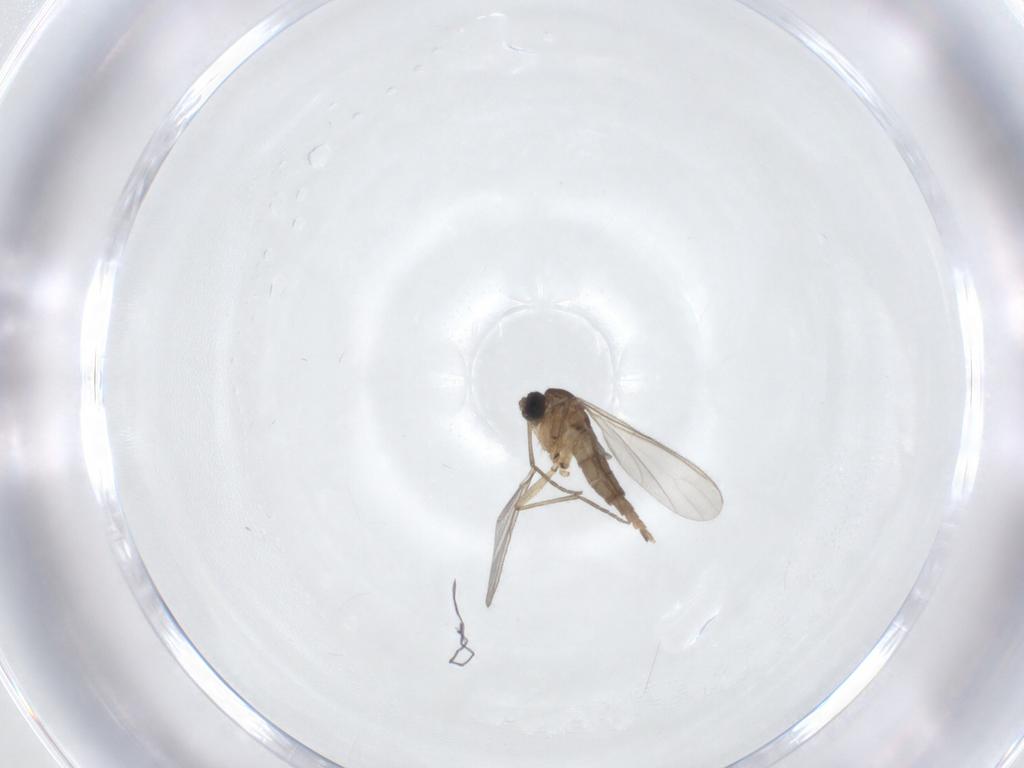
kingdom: Animalia
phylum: Arthropoda
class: Insecta
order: Diptera
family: Sciaridae
